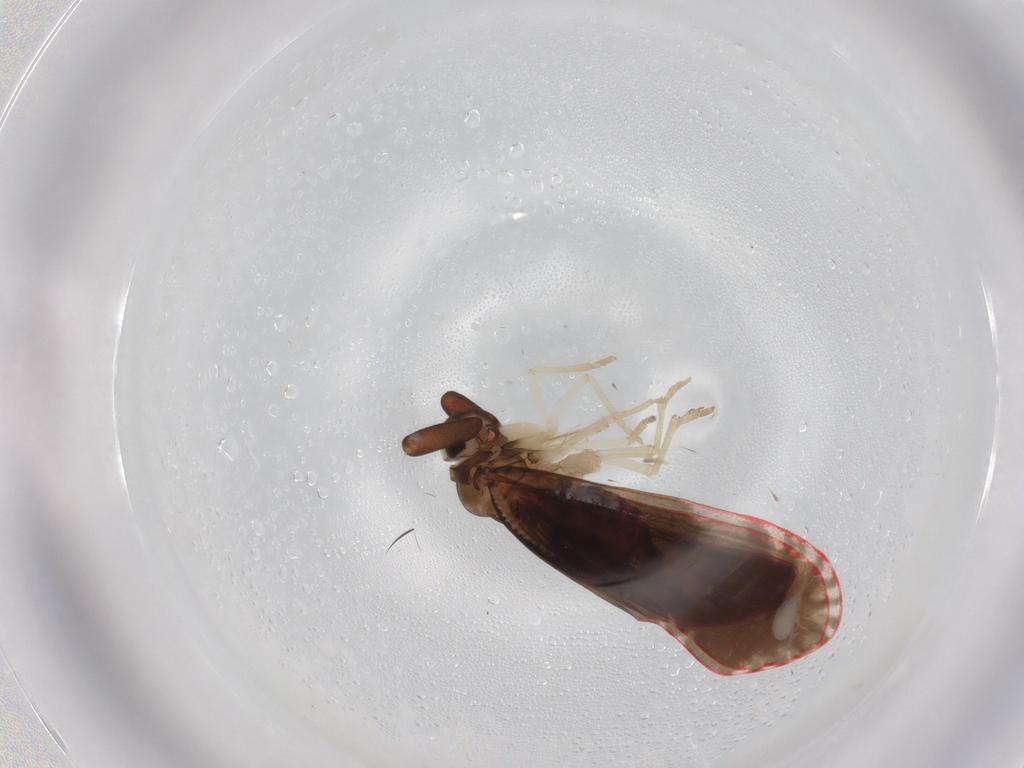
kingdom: Animalia
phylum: Arthropoda
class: Insecta
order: Hemiptera
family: Derbidae
